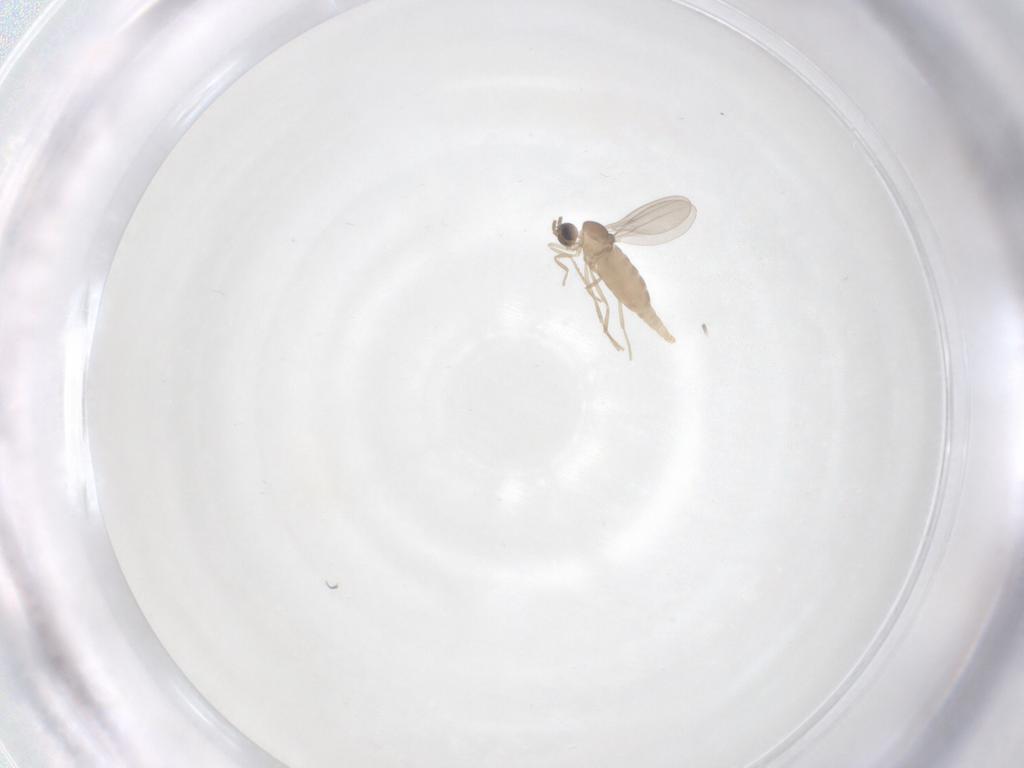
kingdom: Animalia
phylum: Arthropoda
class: Insecta
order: Diptera
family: Cecidomyiidae
